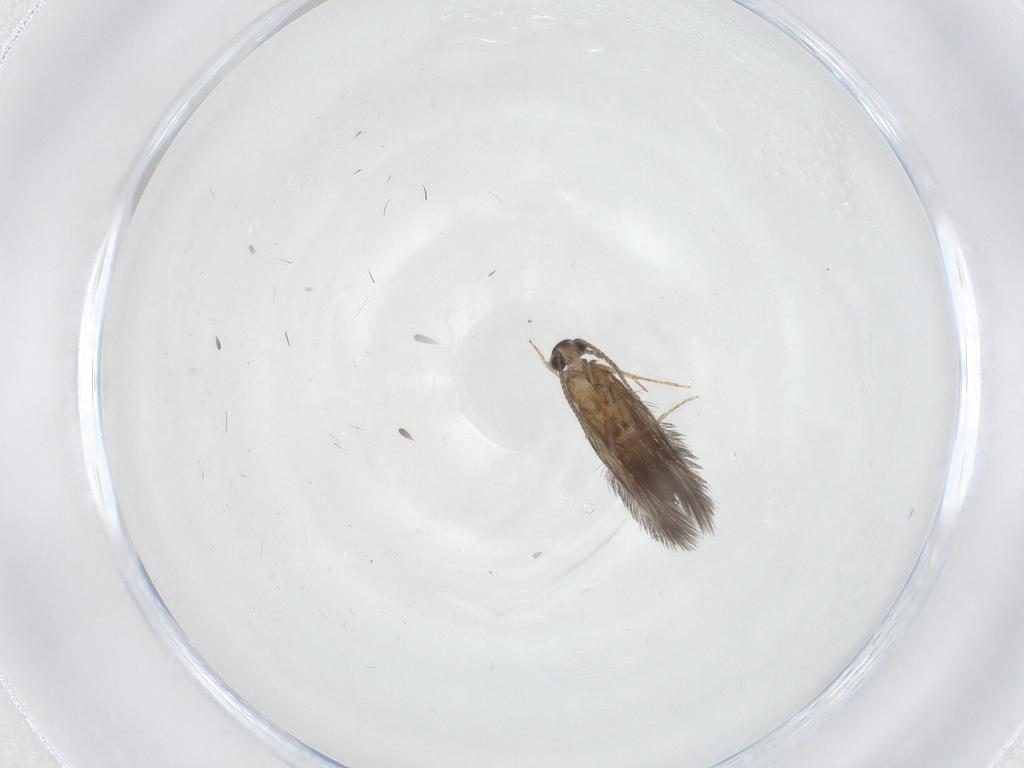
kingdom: Animalia
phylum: Arthropoda
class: Insecta
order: Trichoptera
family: Hydroptilidae
